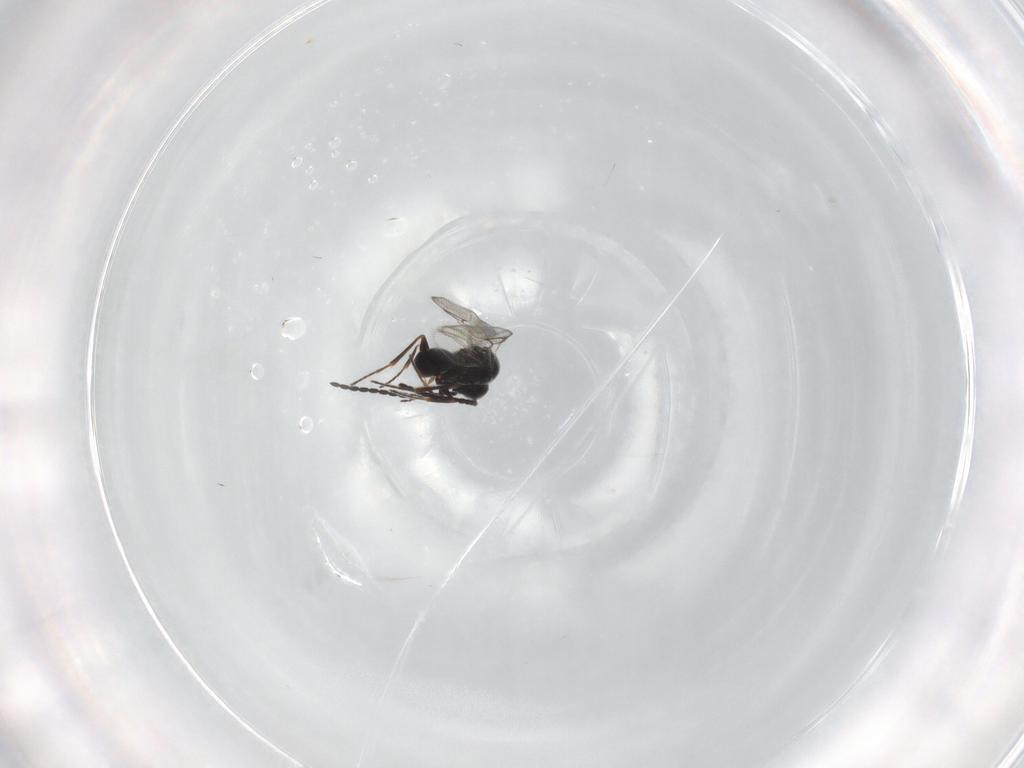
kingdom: Animalia
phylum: Arthropoda
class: Insecta
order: Hymenoptera
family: Figitidae
